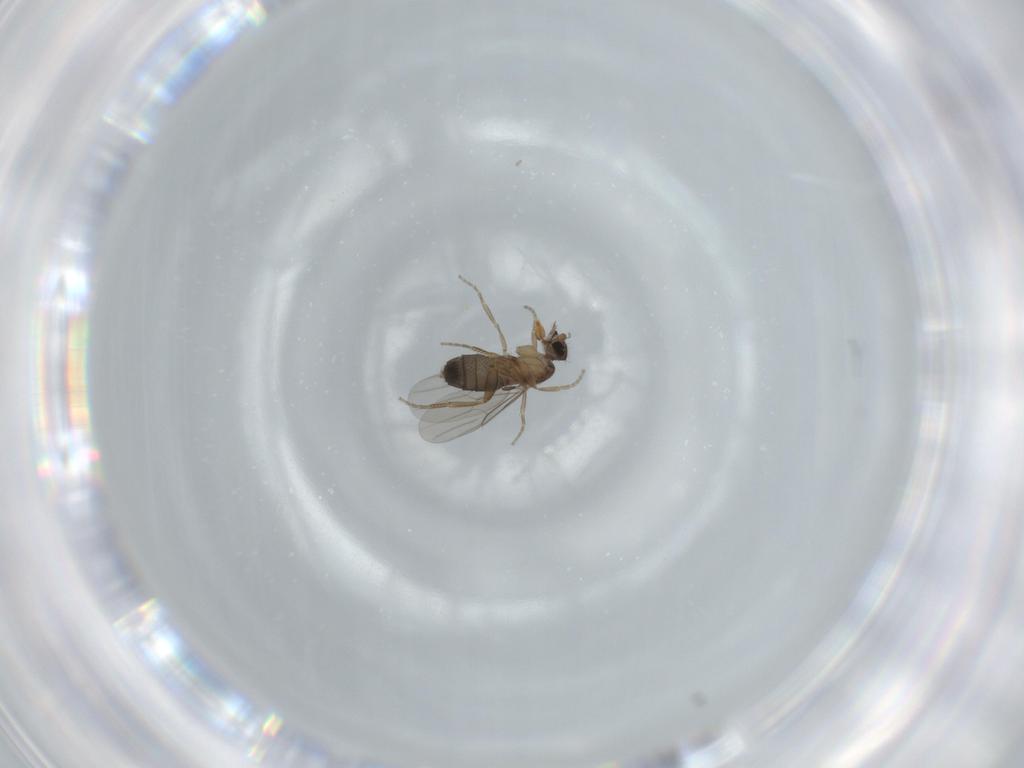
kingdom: Animalia
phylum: Arthropoda
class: Insecta
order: Diptera
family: Phoridae
